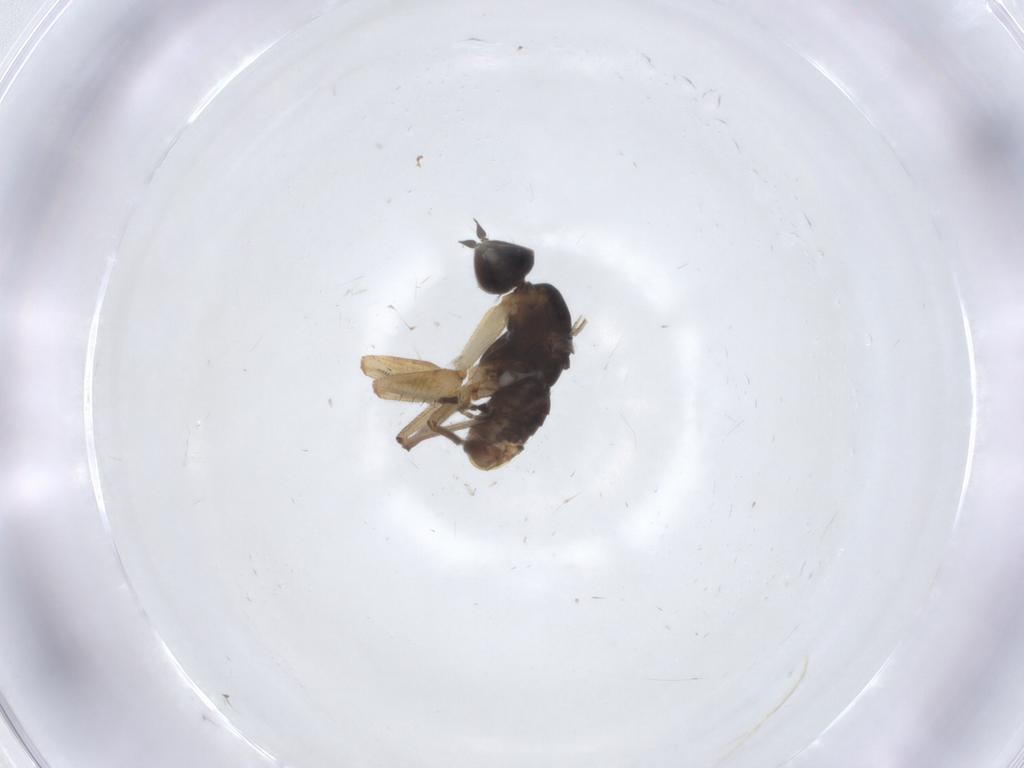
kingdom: Animalia
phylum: Arthropoda
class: Insecta
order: Diptera
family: Empididae
